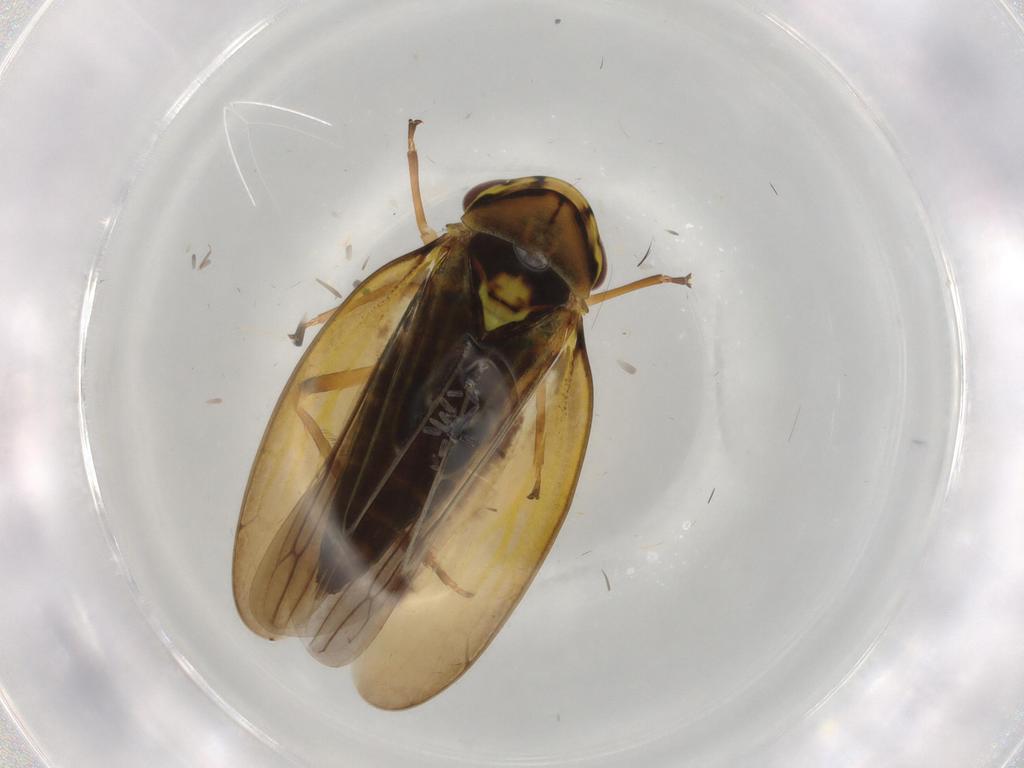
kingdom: Animalia
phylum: Arthropoda
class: Insecta
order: Hemiptera
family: Cicadellidae
